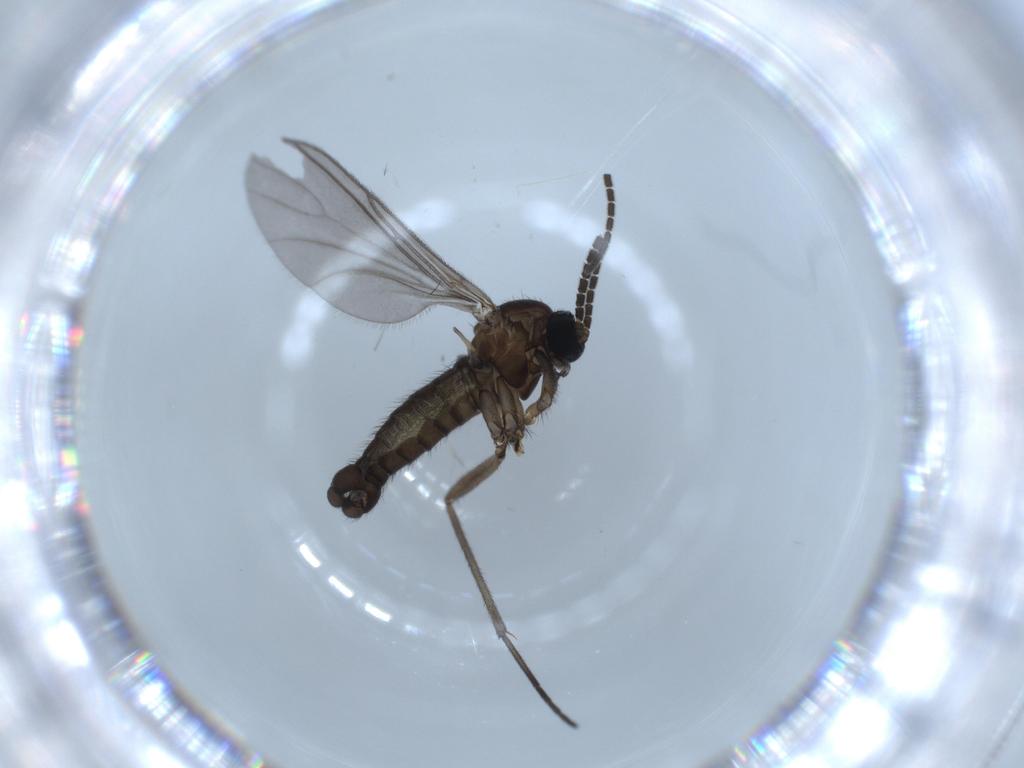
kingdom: Animalia
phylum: Arthropoda
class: Insecta
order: Diptera
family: Sciaridae
